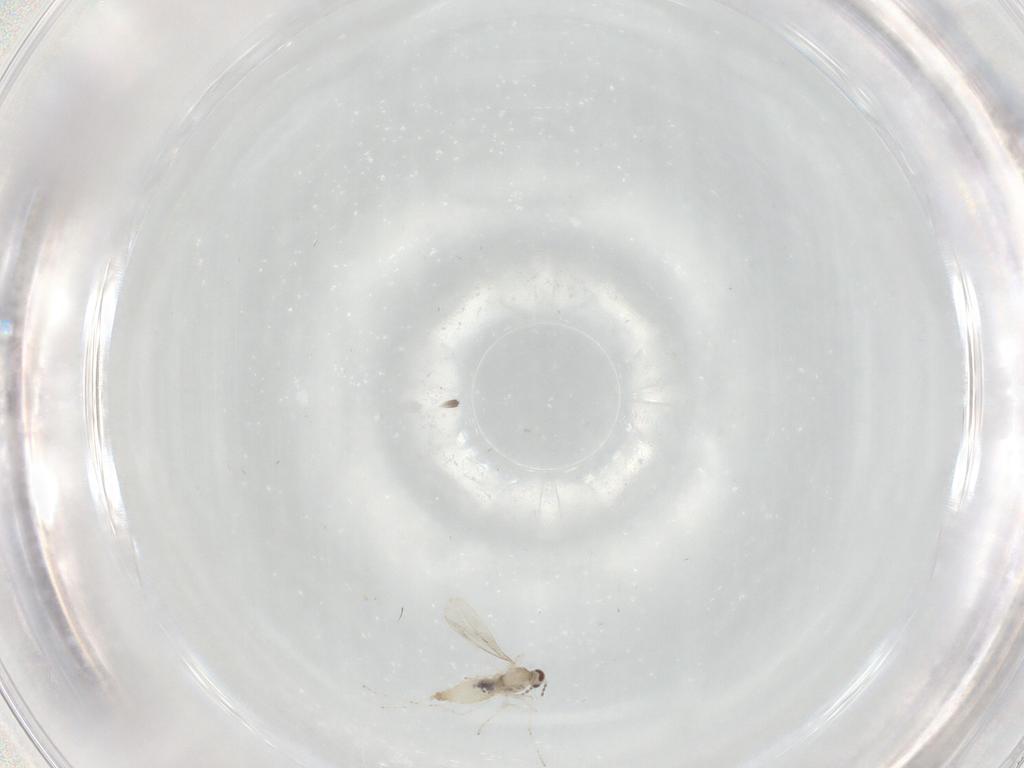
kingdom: Animalia
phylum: Arthropoda
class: Insecta
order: Diptera
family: Cecidomyiidae
